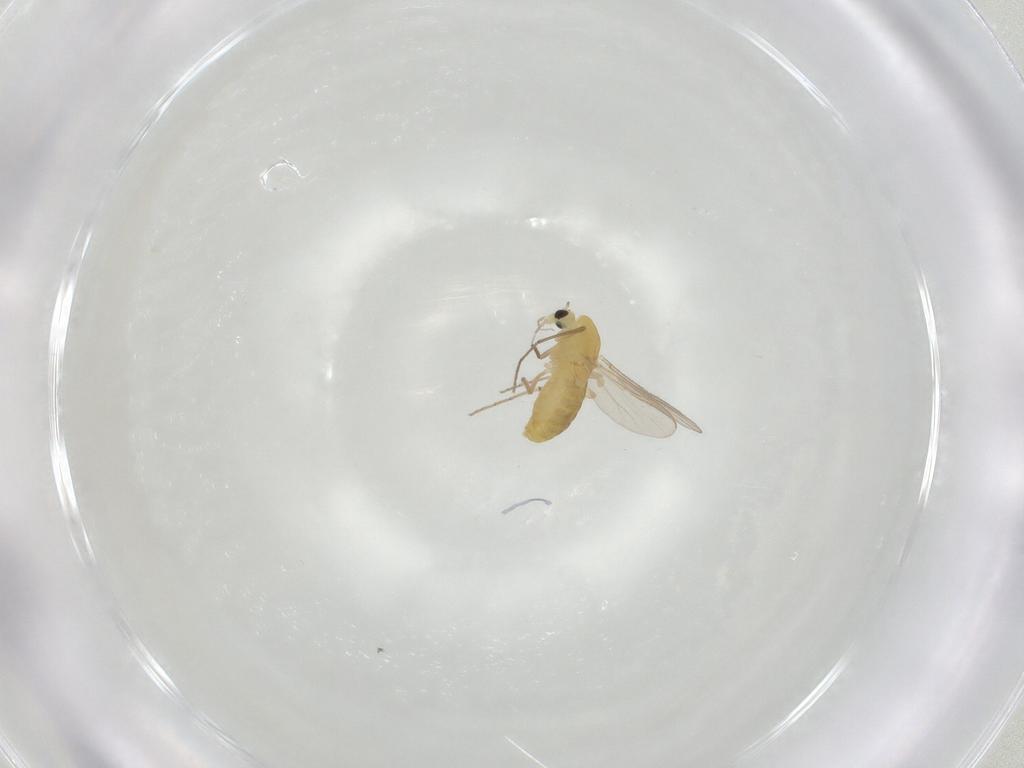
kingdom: Animalia
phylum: Arthropoda
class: Insecta
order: Diptera
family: Chironomidae
